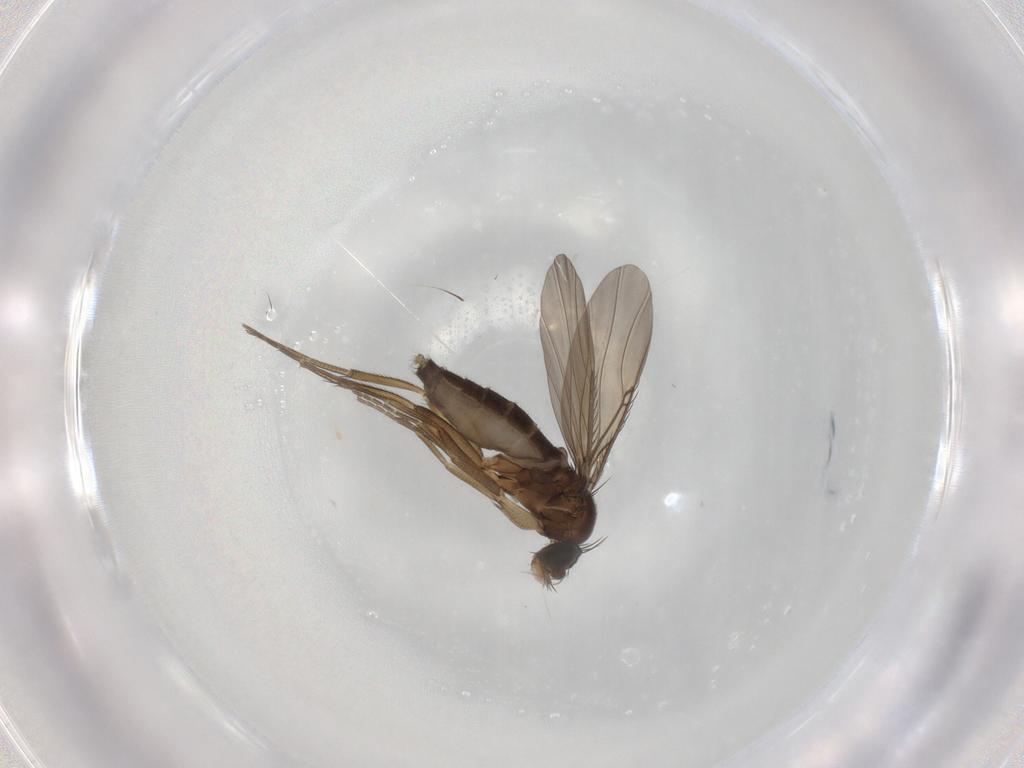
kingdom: Animalia
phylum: Arthropoda
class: Insecta
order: Diptera
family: Phoridae
